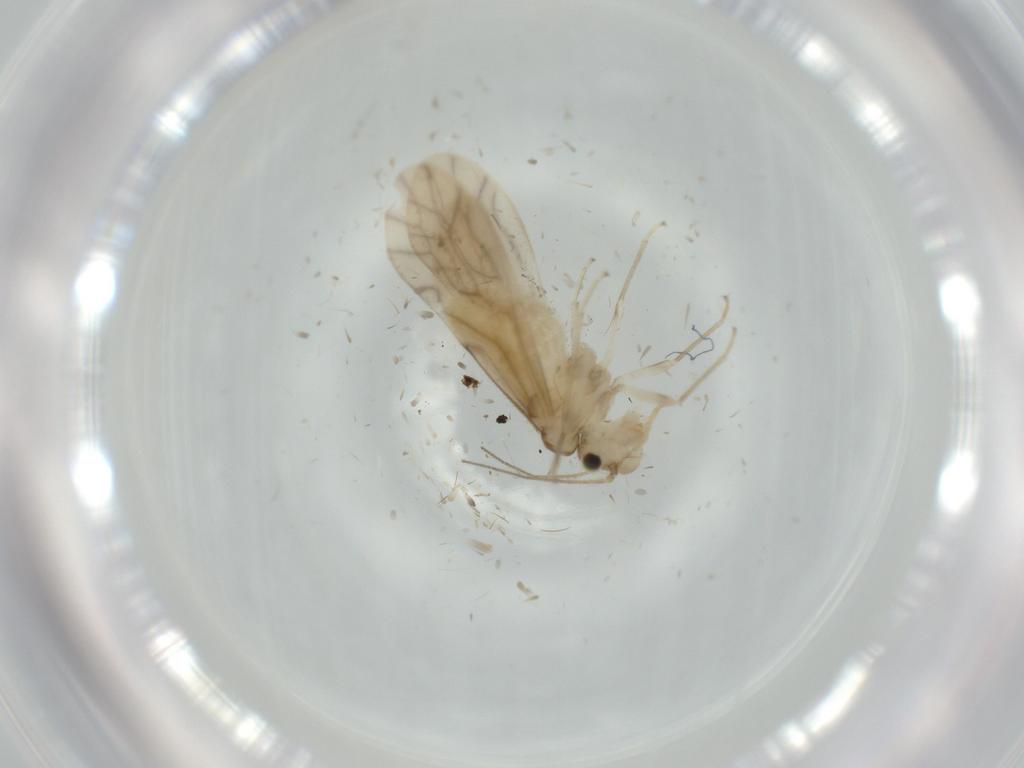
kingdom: Animalia
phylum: Arthropoda
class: Insecta
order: Psocodea
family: Caeciliusidae
